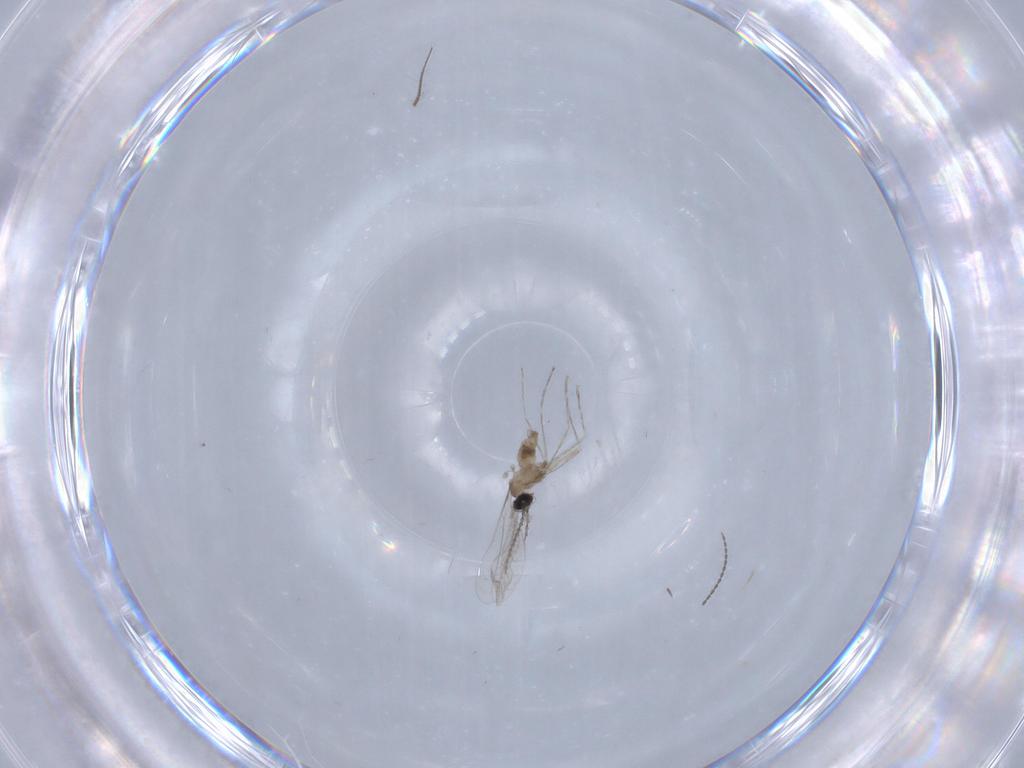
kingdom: Animalia
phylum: Arthropoda
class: Insecta
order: Diptera
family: Cecidomyiidae
